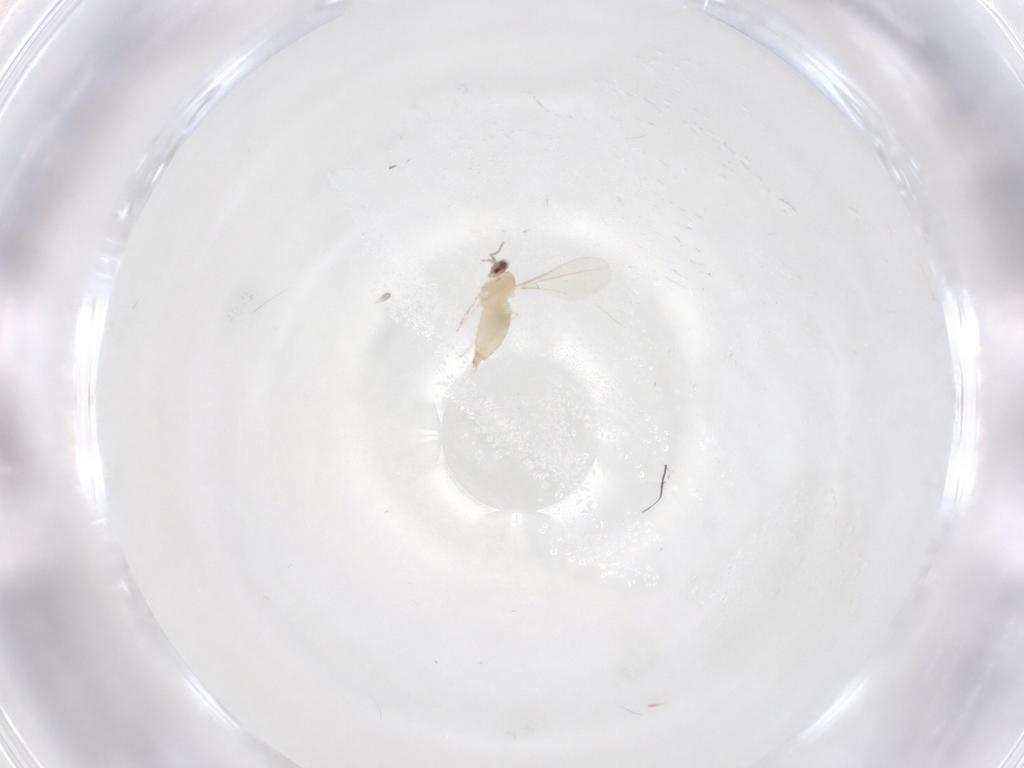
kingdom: Animalia
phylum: Arthropoda
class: Insecta
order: Diptera
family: Cecidomyiidae
